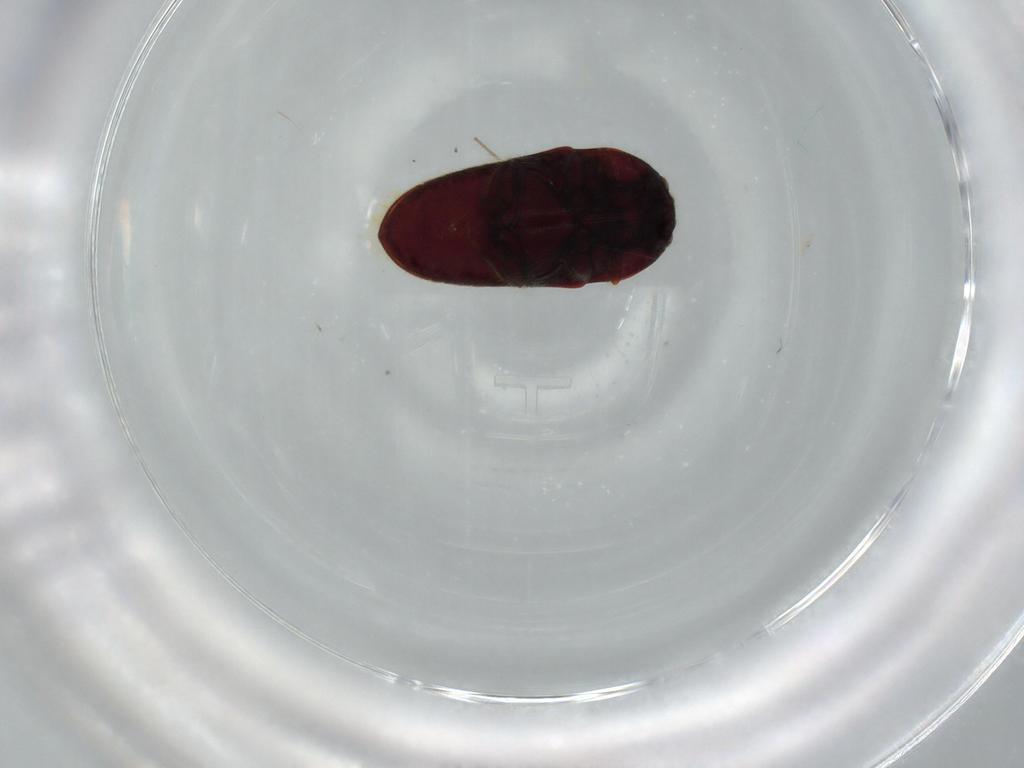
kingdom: Animalia
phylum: Arthropoda
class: Insecta
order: Coleoptera
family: Throscidae
